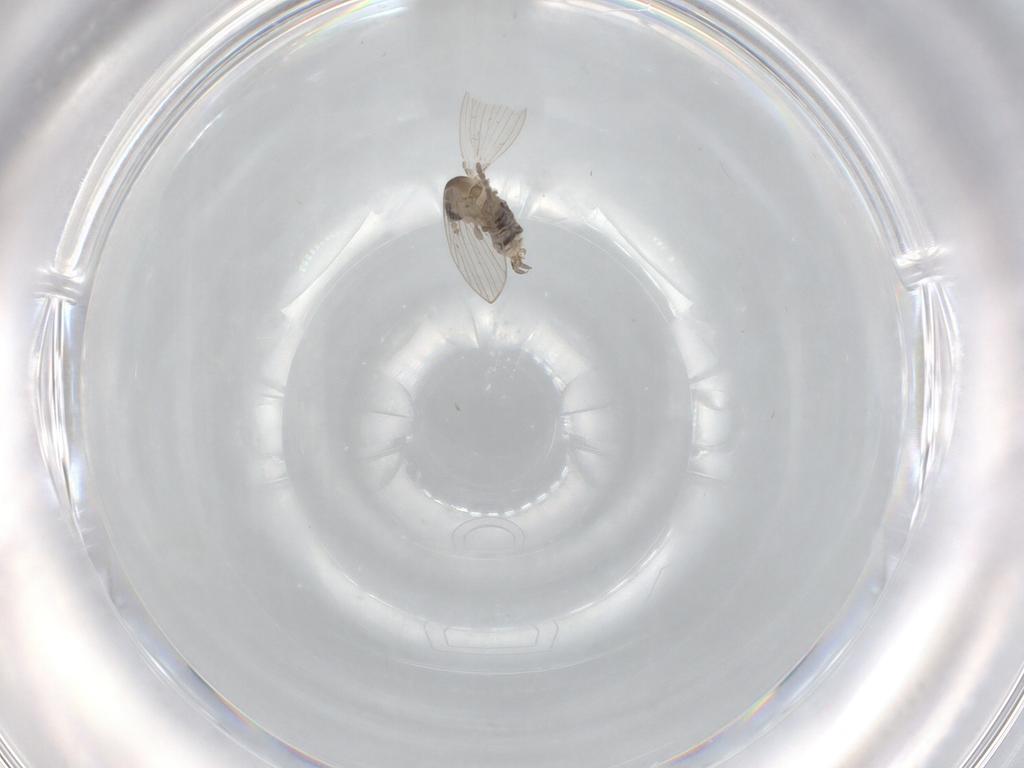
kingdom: Animalia
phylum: Arthropoda
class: Insecta
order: Diptera
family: Psychodidae
